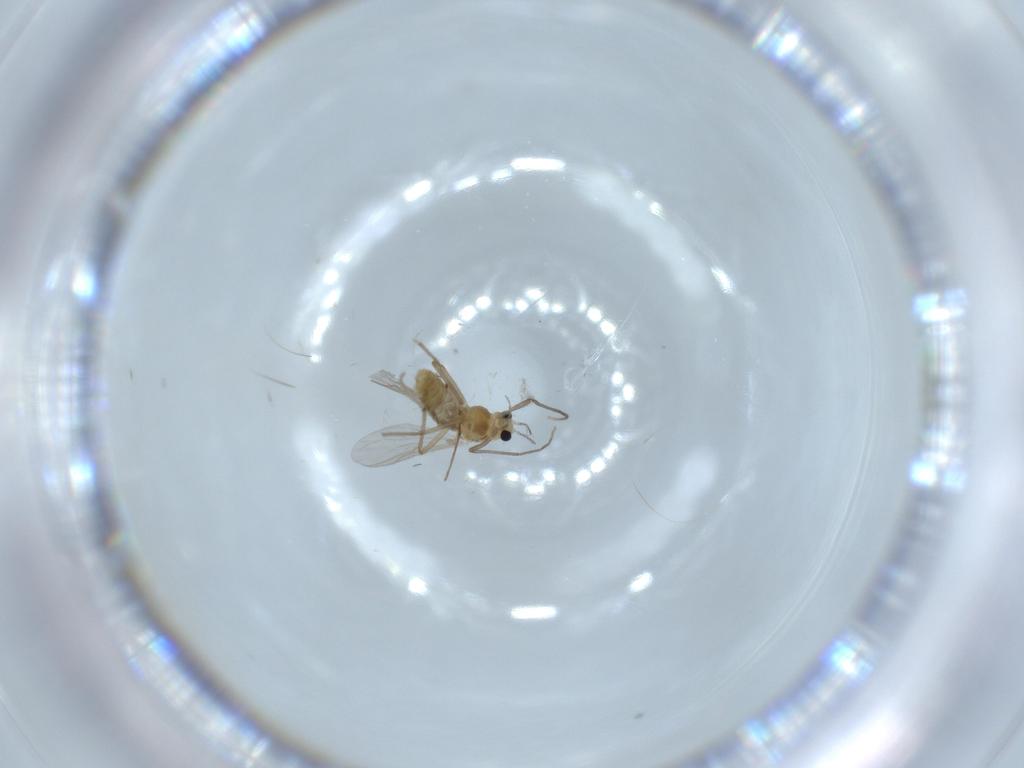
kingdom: Animalia
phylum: Arthropoda
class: Insecta
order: Diptera
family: Chironomidae
